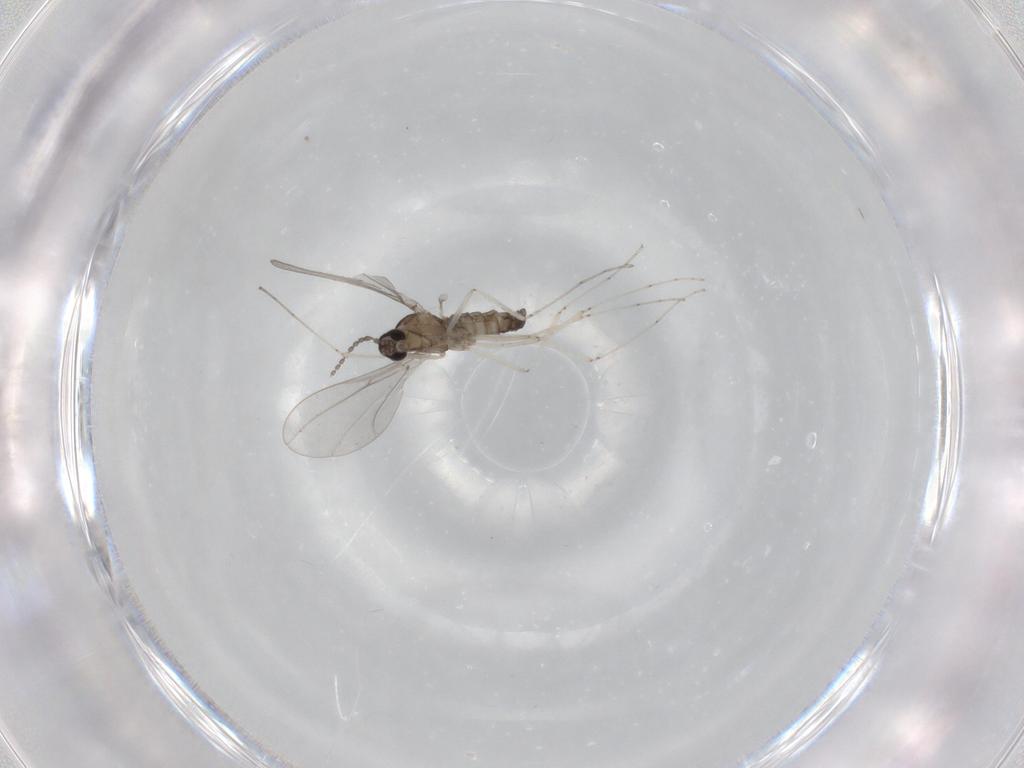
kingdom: Animalia
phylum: Arthropoda
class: Insecta
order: Diptera
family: Cecidomyiidae
